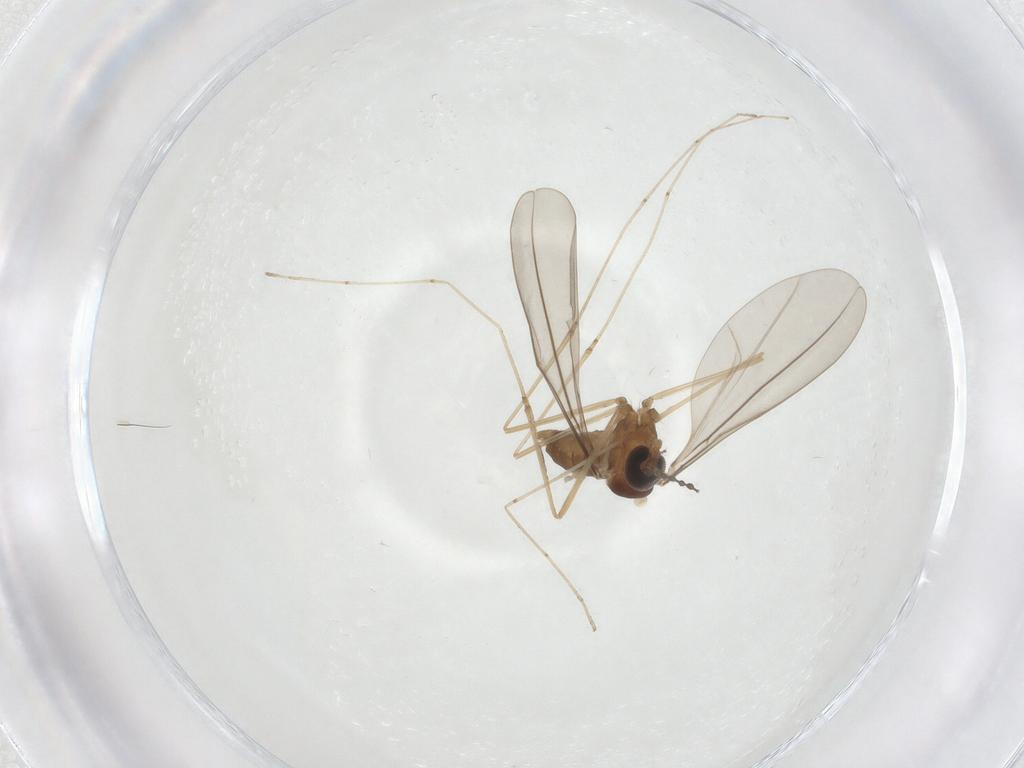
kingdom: Animalia
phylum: Arthropoda
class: Insecta
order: Diptera
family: Cecidomyiidae
